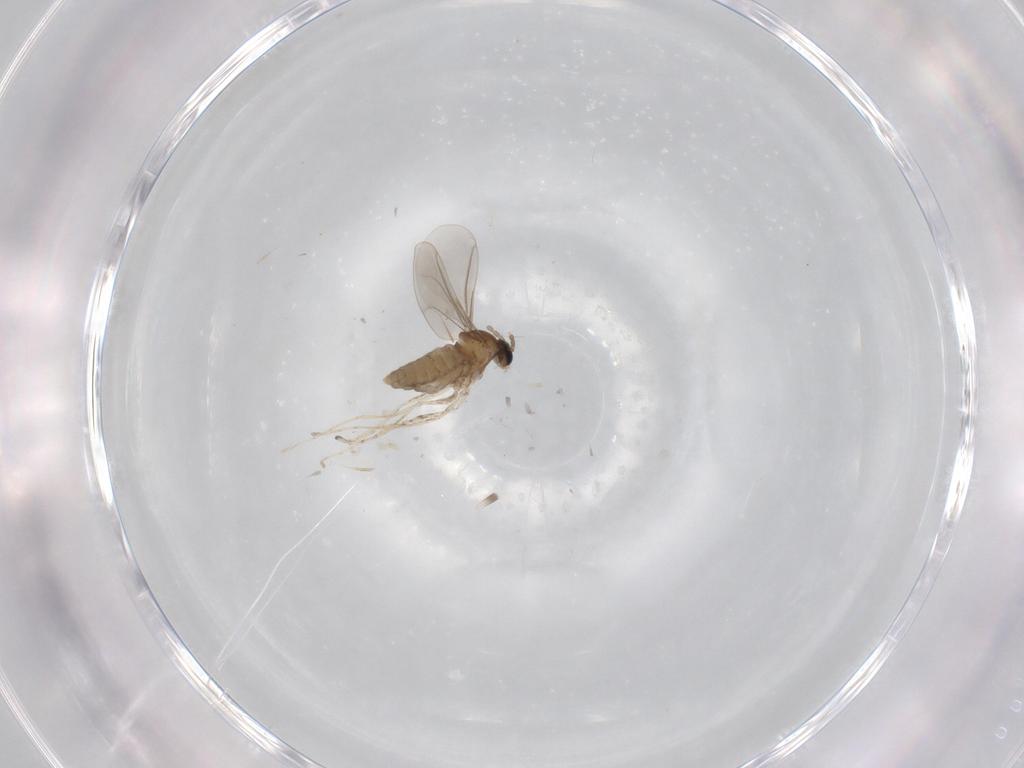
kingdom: Animalia
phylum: Arthropoda
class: Insecta
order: Diptera
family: Cecidomyiidae
